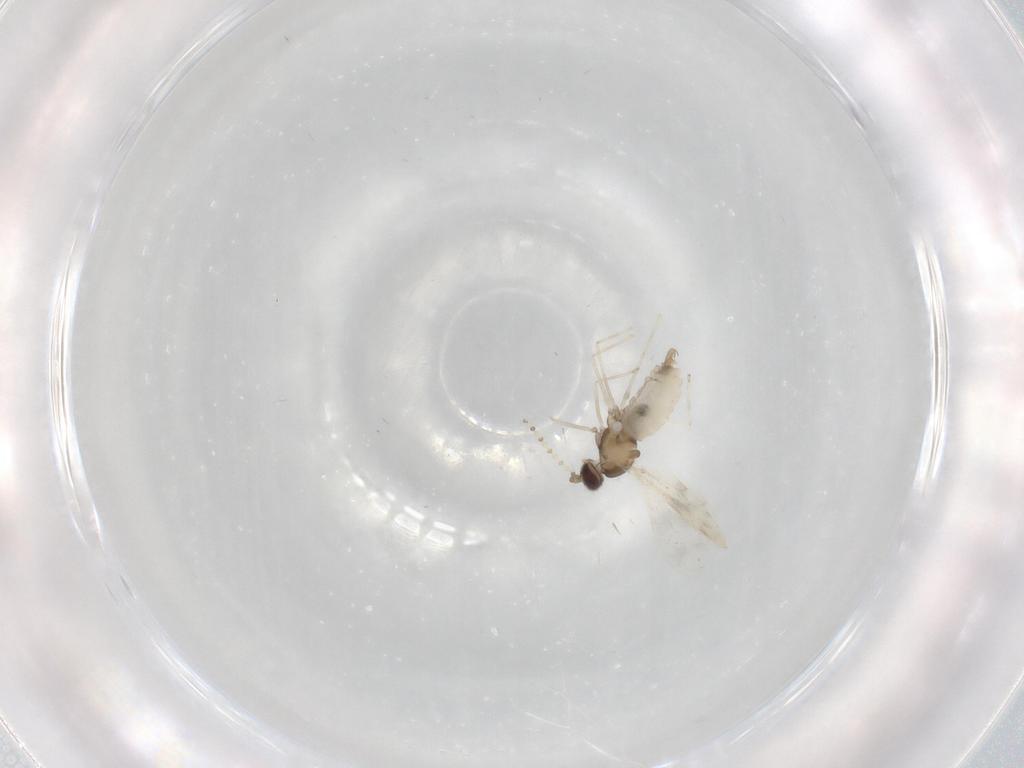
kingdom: Animalia
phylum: Arthropoda
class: Insecta
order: Diptera
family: Cecidomyiidae
